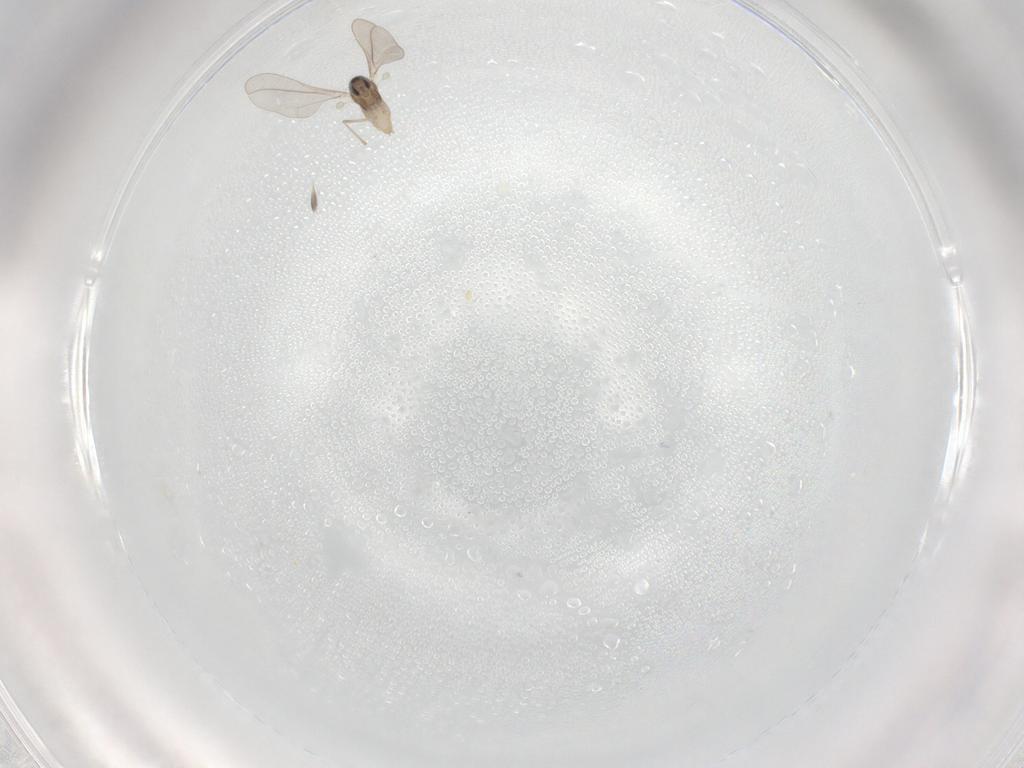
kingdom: Animalia
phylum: Arthropoda
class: Insecta
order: Diptera
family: Cecidomyiidae
